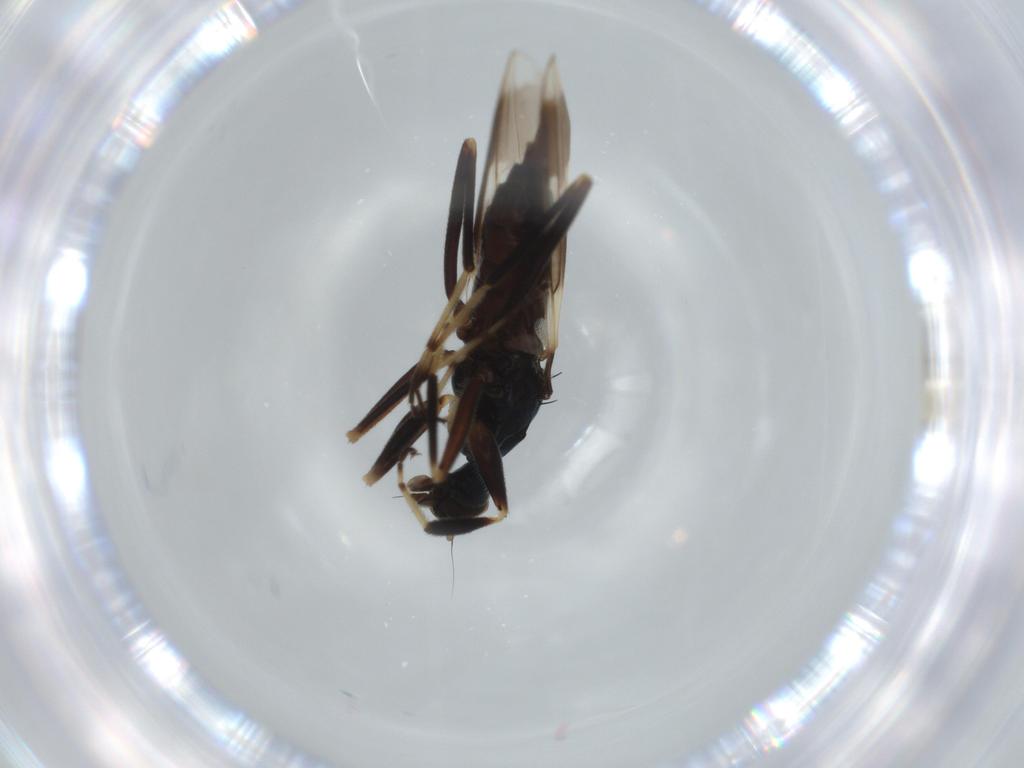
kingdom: Animalia
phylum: Arthropoda
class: Insecta
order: Diptera
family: Hybotidae
